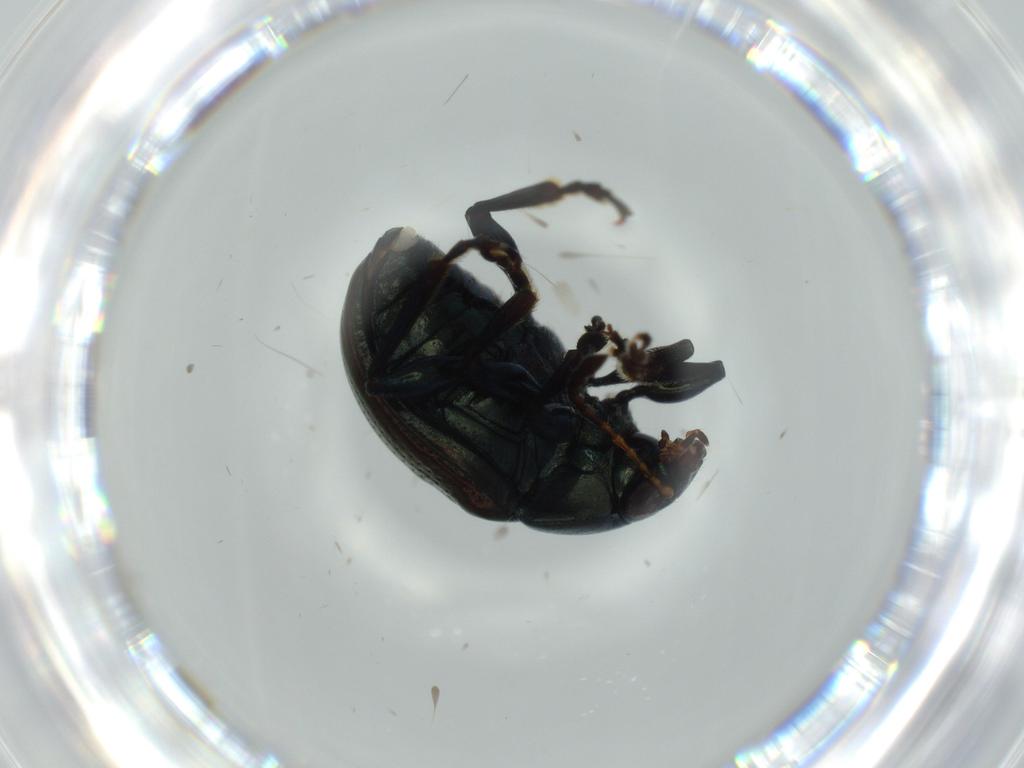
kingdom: Animalia
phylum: Arthropoda
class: Insecta
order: Coleoptera
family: Chrysomelidae
